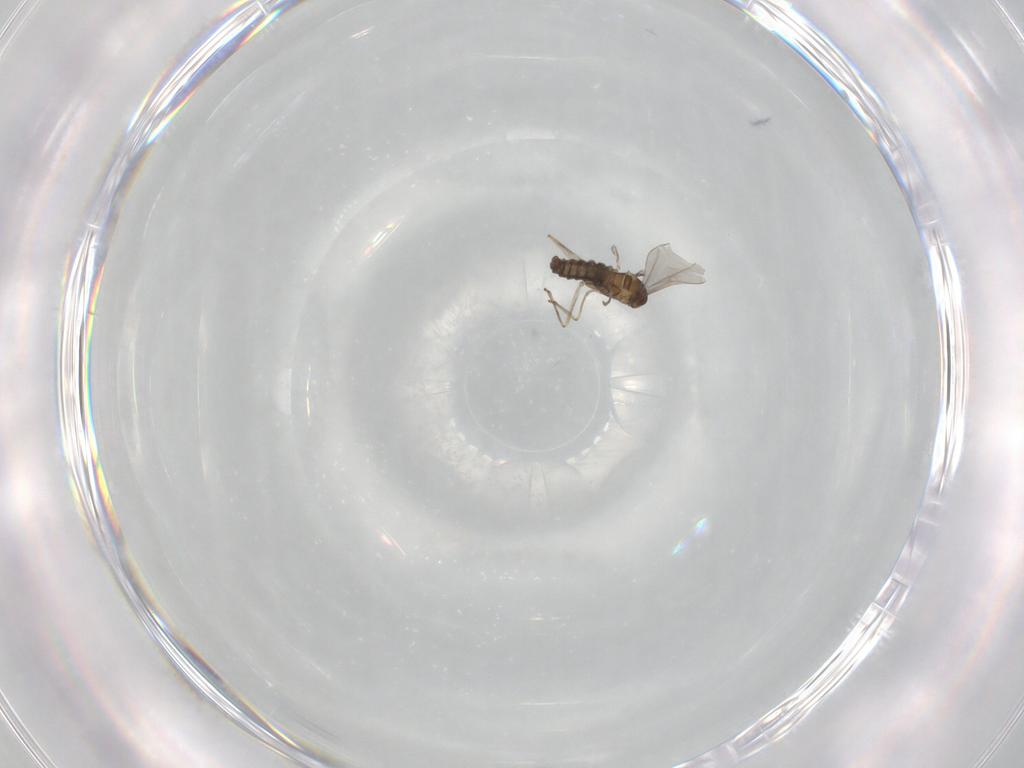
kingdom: Animalia
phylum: Arthropoda
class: Insecta
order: Diptera
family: Cecidomyiidae
